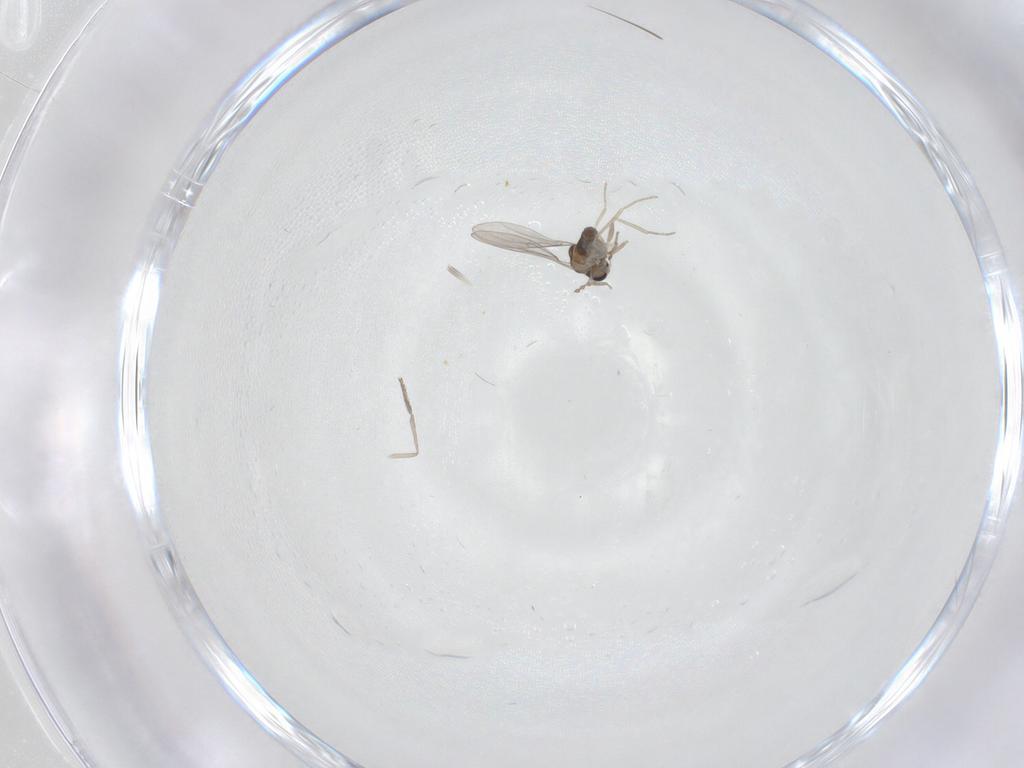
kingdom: Animalia
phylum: Arthropoda
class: Insecta
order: Diptera
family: Psychodidae
